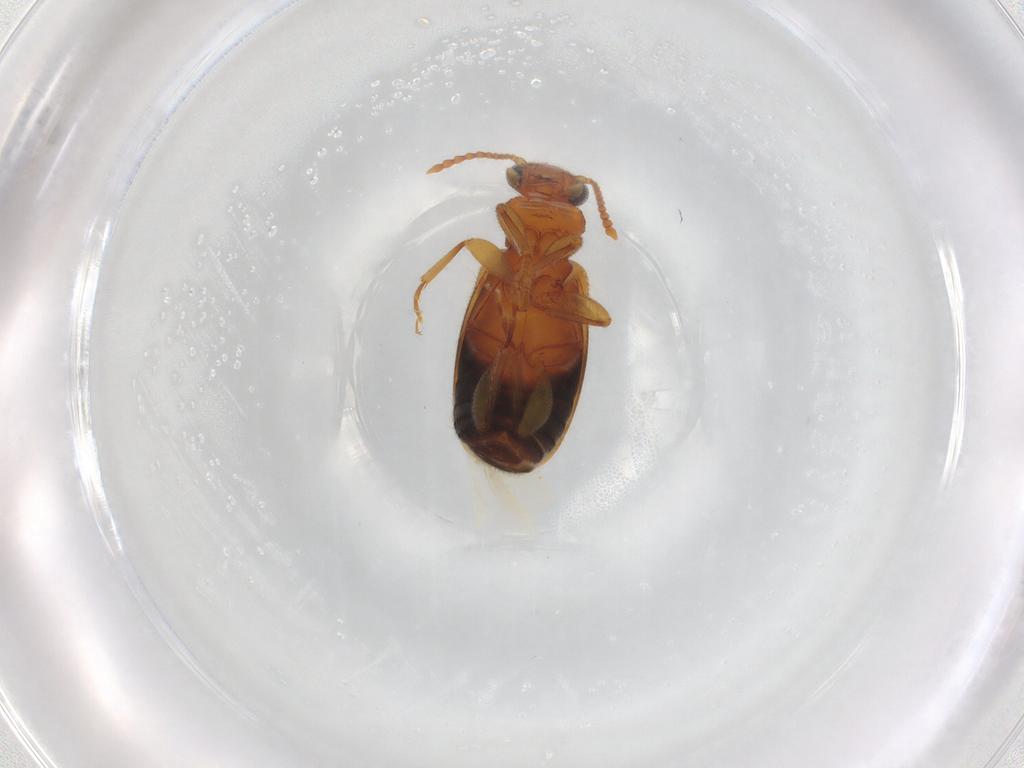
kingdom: Animalia
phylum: Arthropoda
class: Insecta
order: Coleoptera
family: Anthicidae
